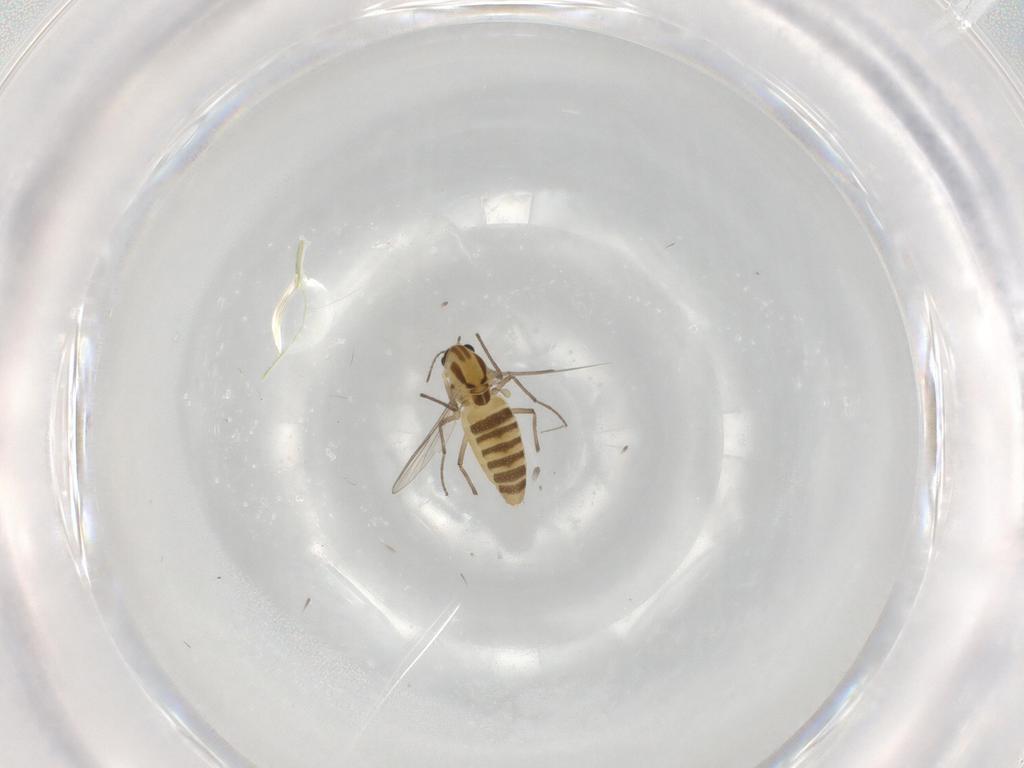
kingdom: Animalia
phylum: Arthropoda
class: Insecta
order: Diptera
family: Chironomidae
